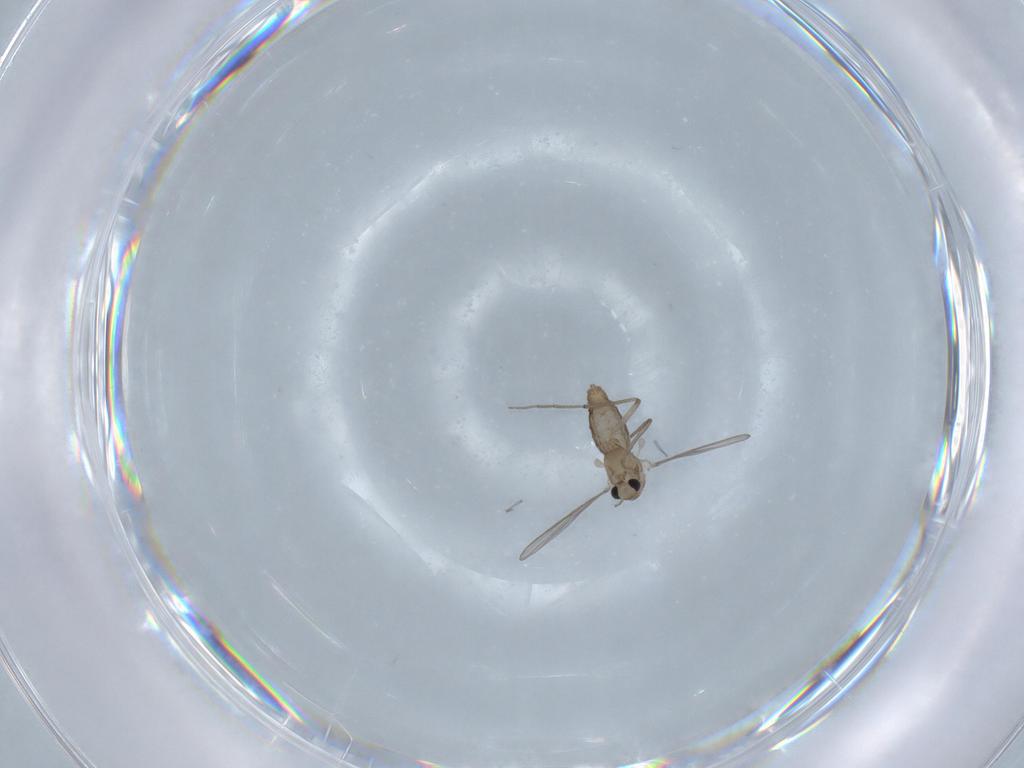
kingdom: Animalia
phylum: Arthropoda
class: Insecta
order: Diptera
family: Chironomidae
